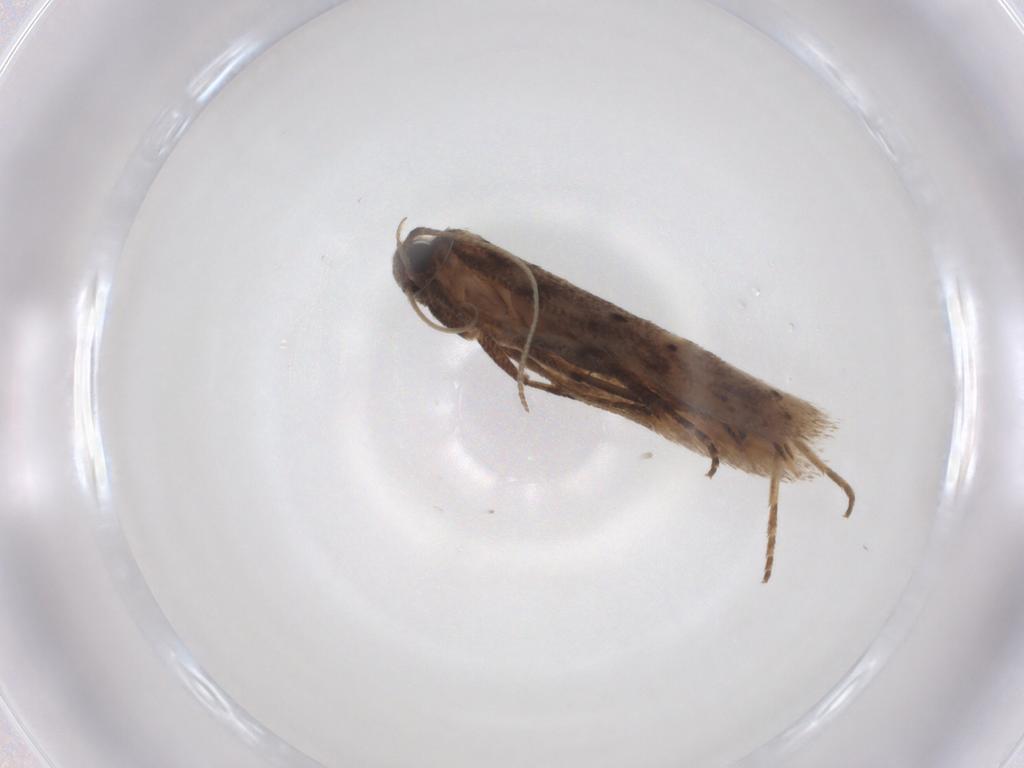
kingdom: Animalia
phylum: Arthropoda
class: Insecta
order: Lepidoptera
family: Gelechiidae
